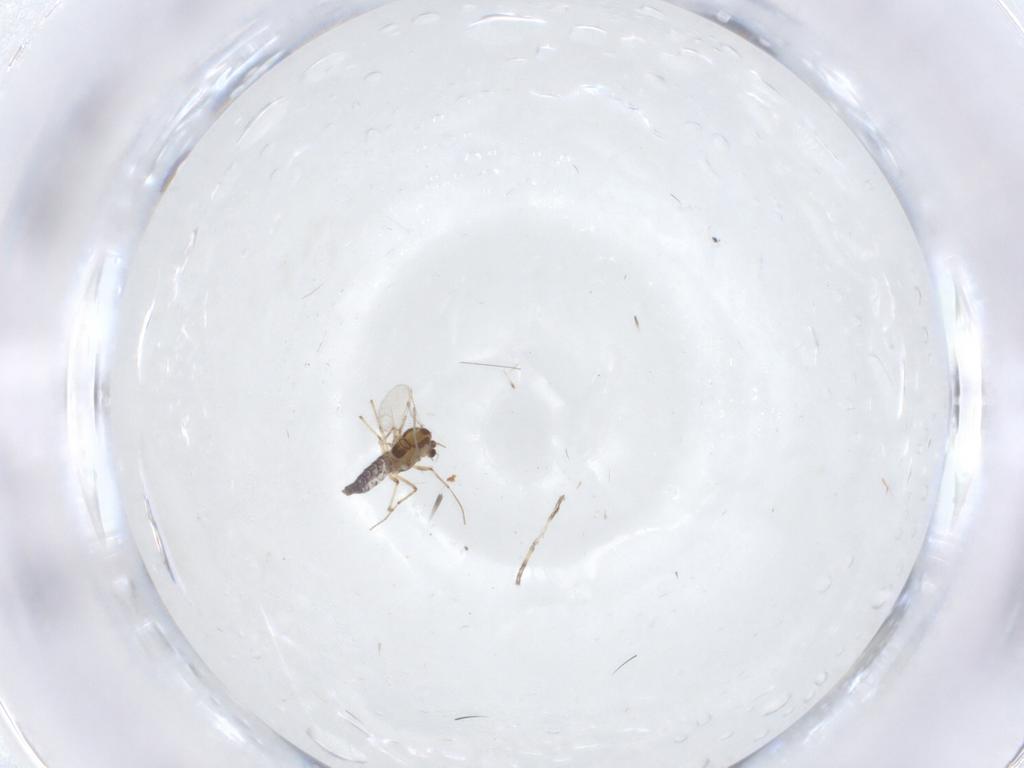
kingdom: Animalia
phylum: Arthropoda
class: Insecta
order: Diptera
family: Cecidomyiidae
